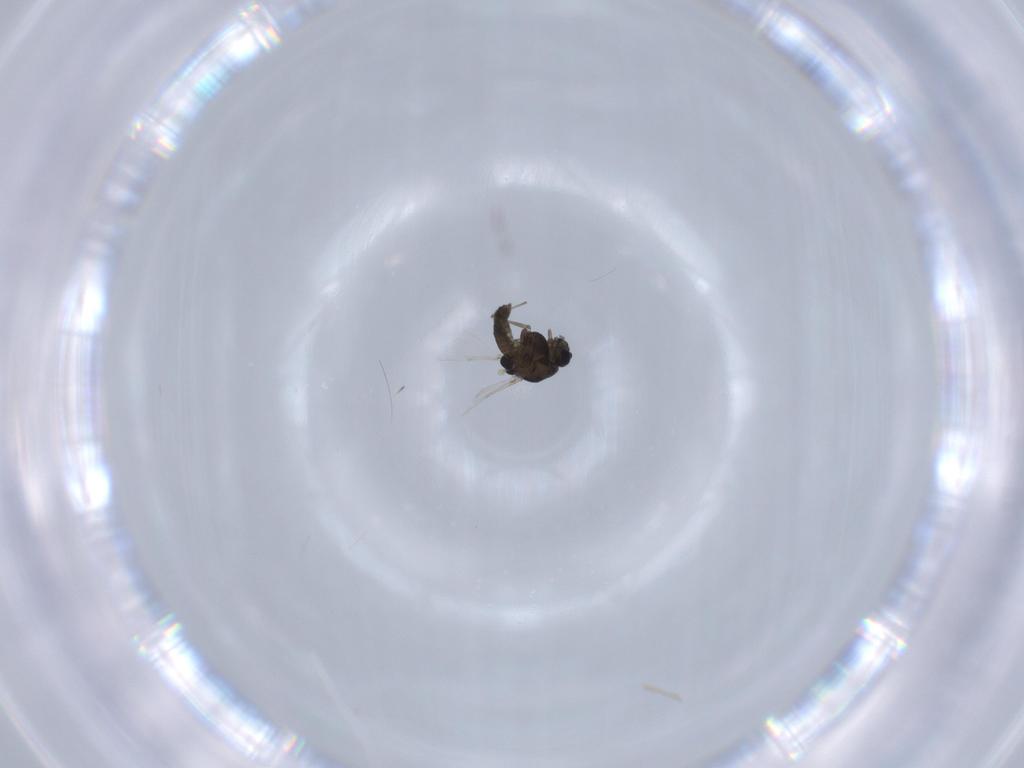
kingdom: Animalia
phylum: Arthropoda
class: Insecta
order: Diptera
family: Chironomidae
